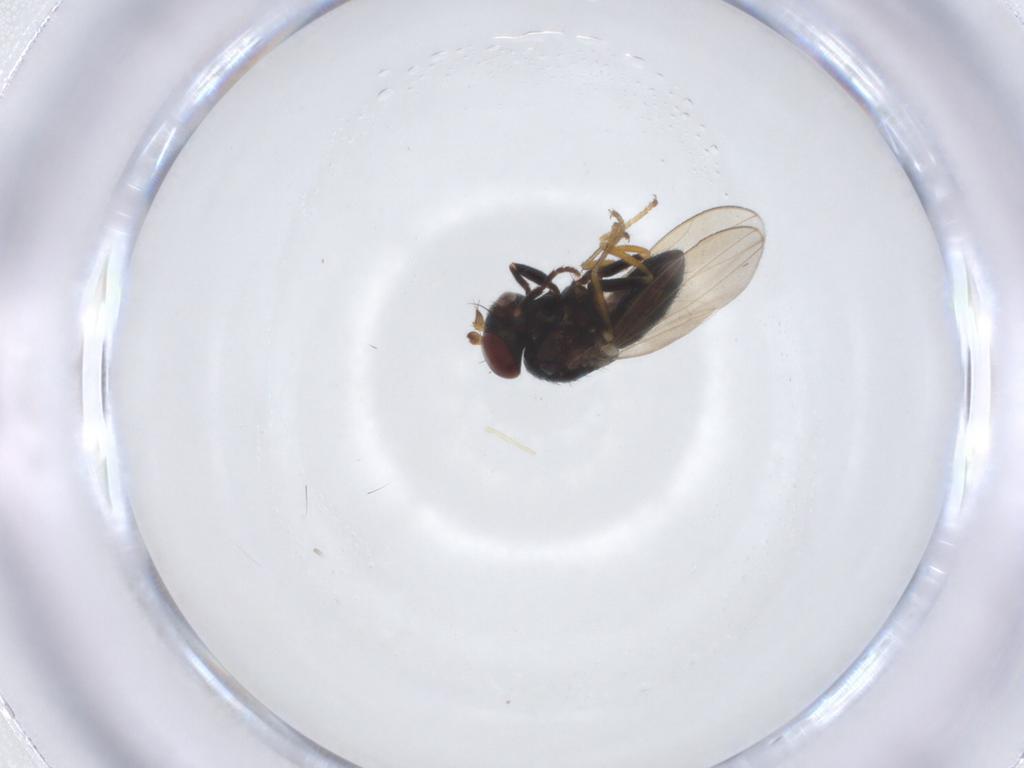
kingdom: Animalia
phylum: Arthropoda
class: Insecta
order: Diptera
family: Ephydridae
